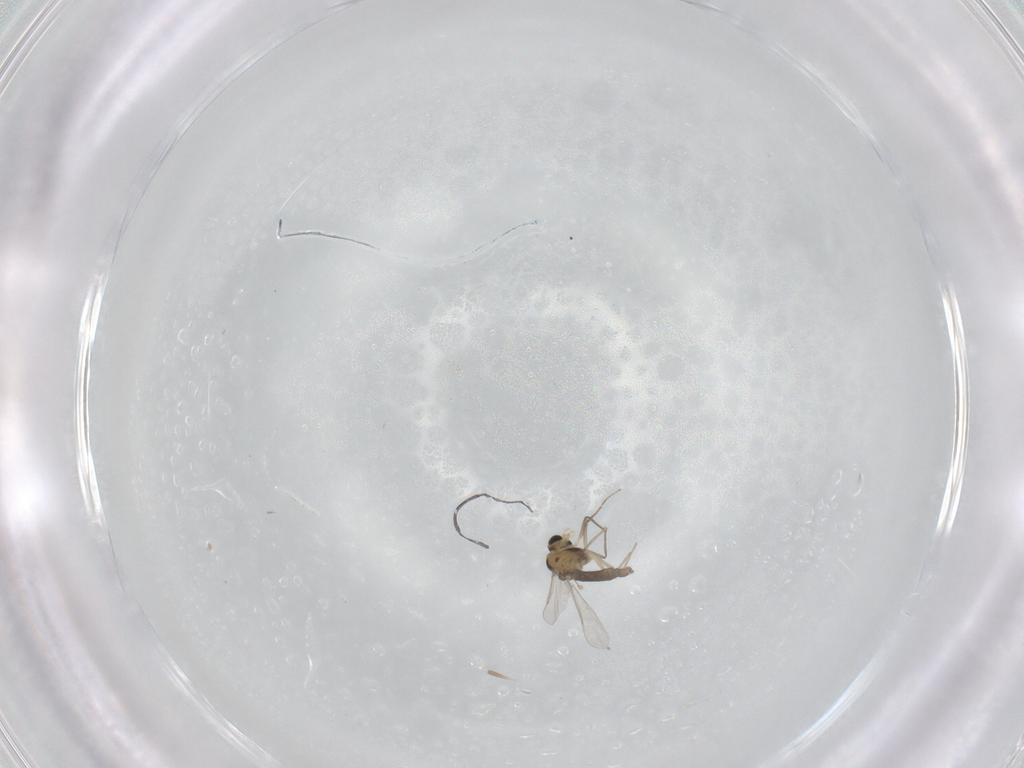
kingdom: Animalia
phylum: Arthropoda
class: Insecta
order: Diptera
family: Cecidomyiidae
